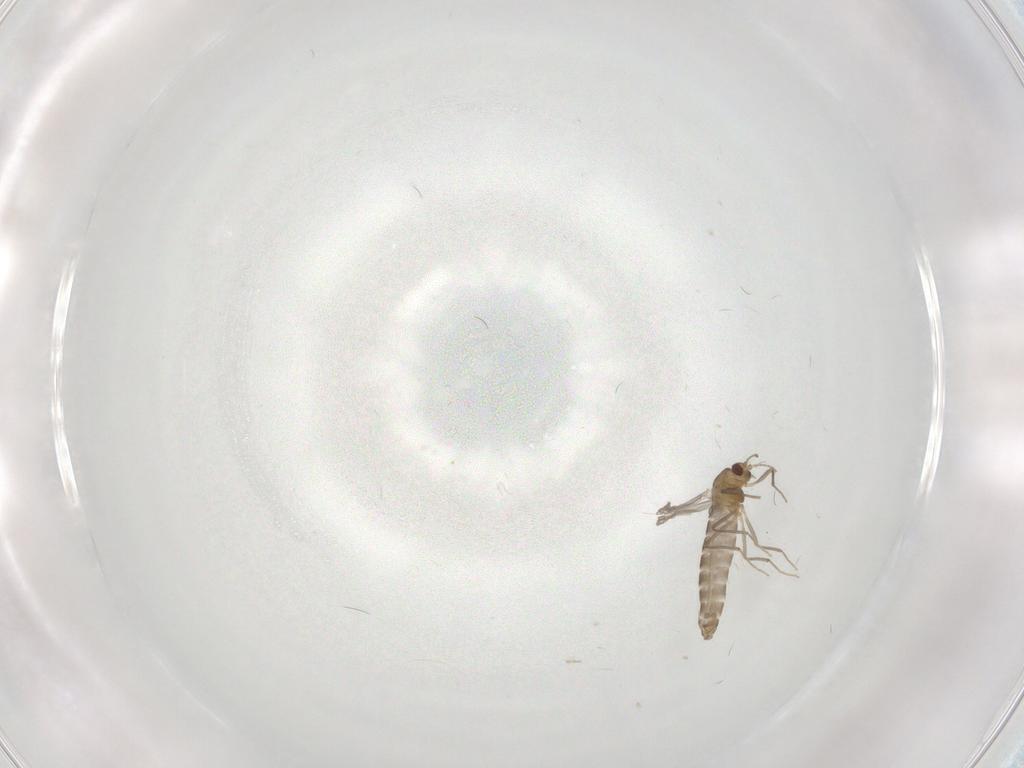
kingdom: Animalia
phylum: Arthropoda
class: Insecta
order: Diptera
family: Chironomidae
